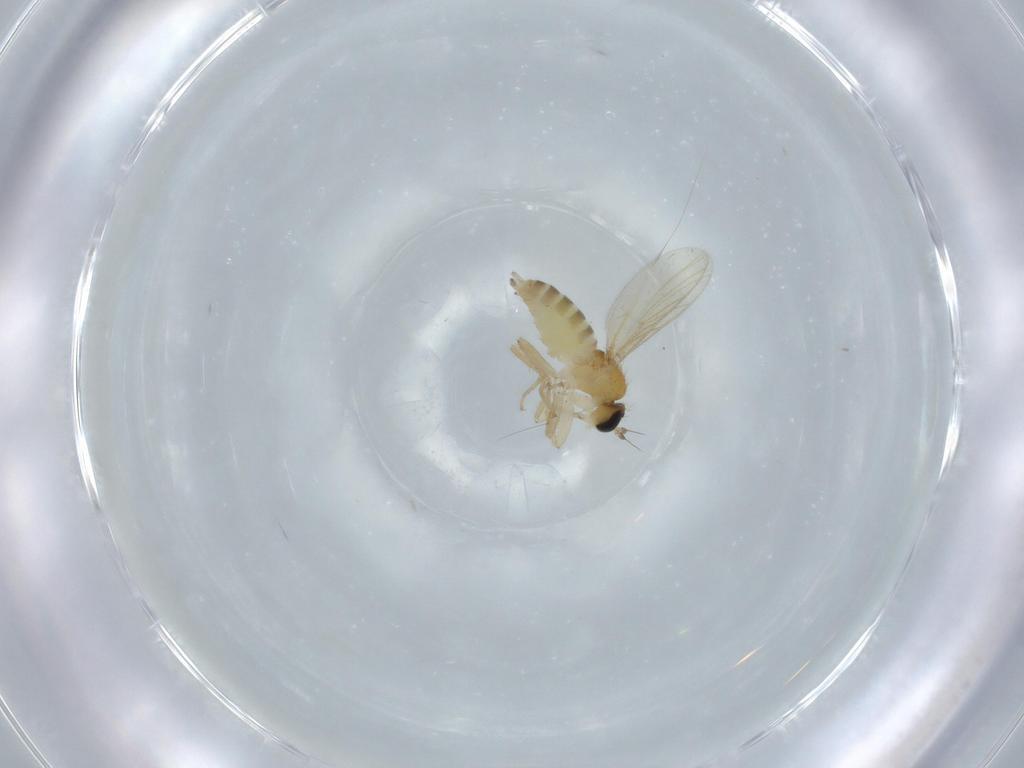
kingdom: Animalia
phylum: Arthropoda
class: Insecta
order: Diptera
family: Hybotidae
